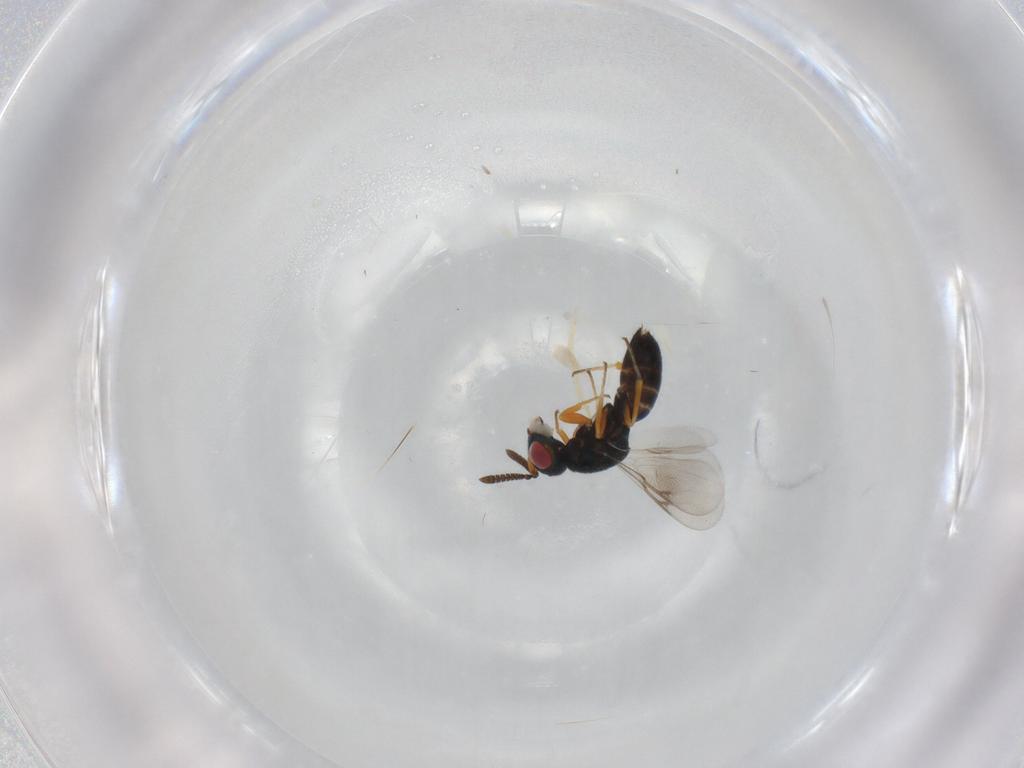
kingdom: Animalia
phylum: Arthropoda
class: Insecta
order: Hymenoptera
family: Pteromalidae
